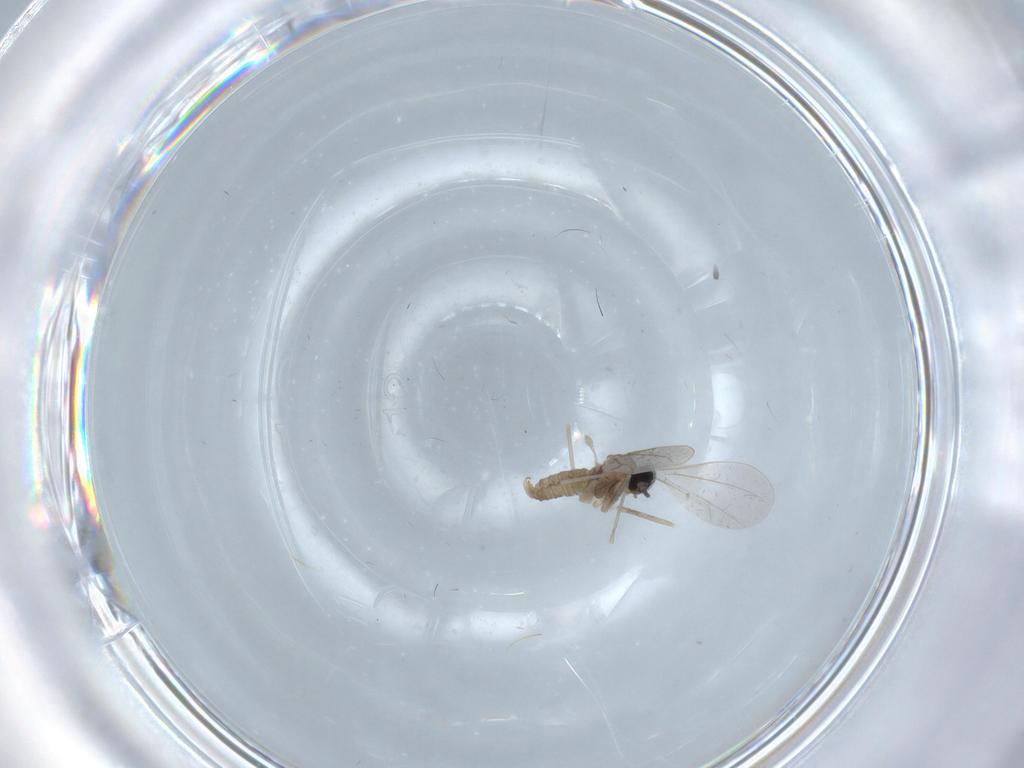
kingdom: Animalia
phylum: Arthropoda
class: Insecta
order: Diptera
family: Cecidomyiidae
